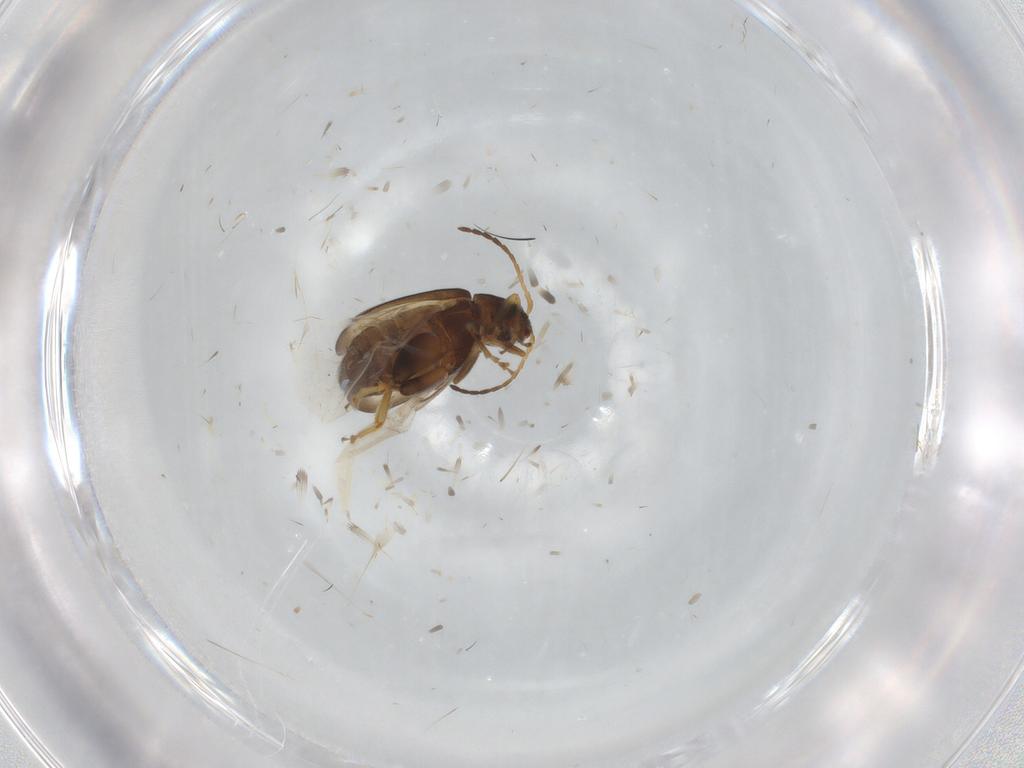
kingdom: Animalia
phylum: Arthropoda
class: Insecta
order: Coleoptera
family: Chrysomelidae
